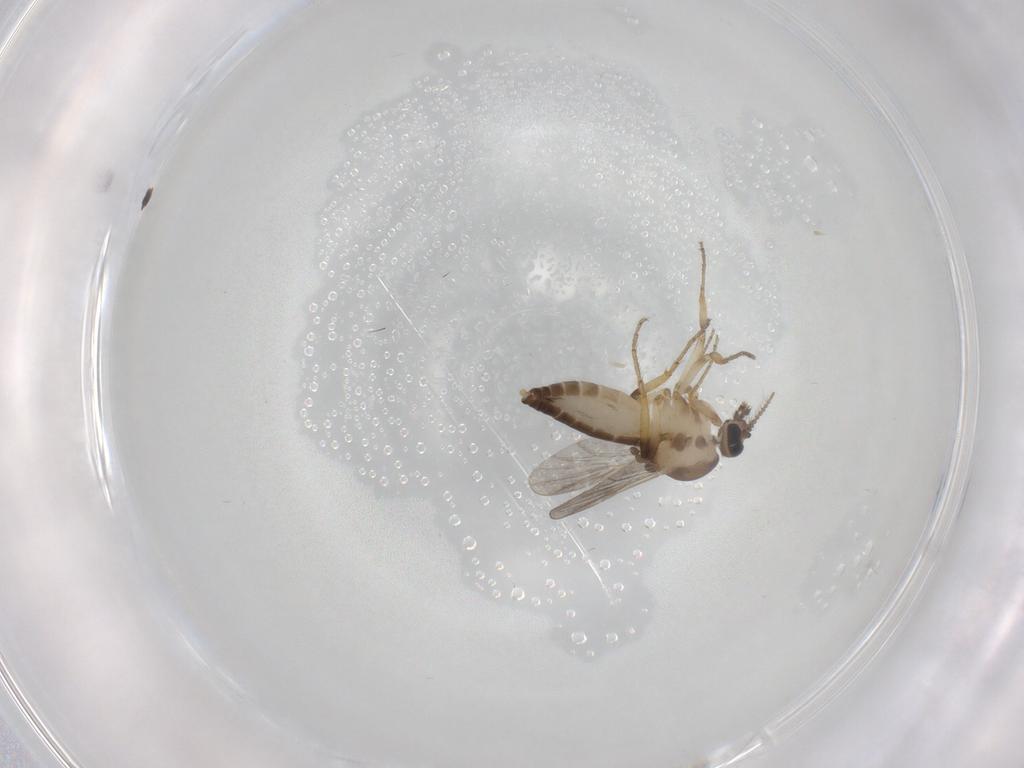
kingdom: Animalia
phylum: Arthropoda
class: Insecta
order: Diptera
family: Ceratopogonidae
